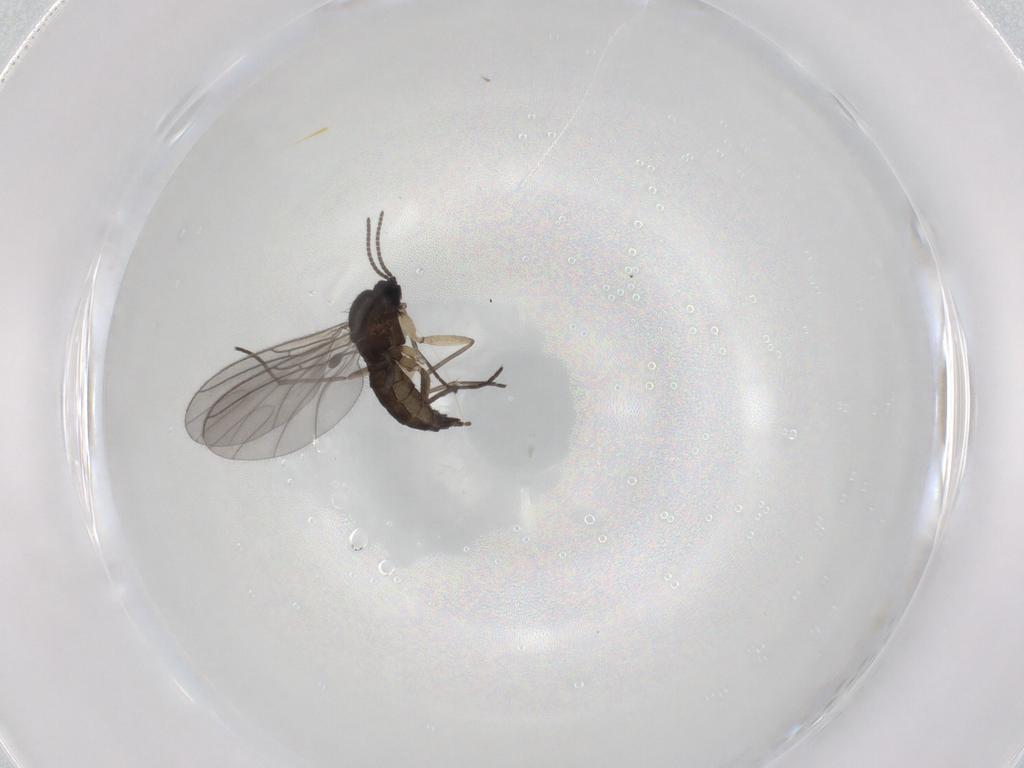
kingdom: Animalia
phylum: Arthropoda
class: Insecta
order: Diptera
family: Sciaridae
